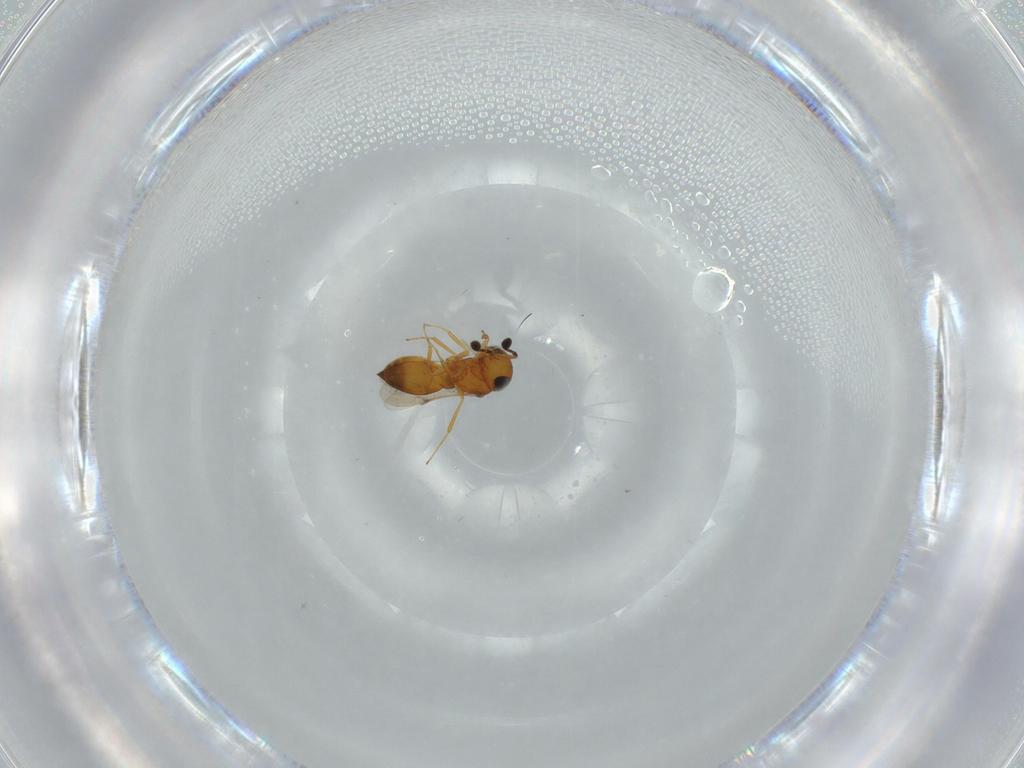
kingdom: Animalia
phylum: Arthropoda
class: Insecta
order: Hymenoptera
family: Scelionidae
